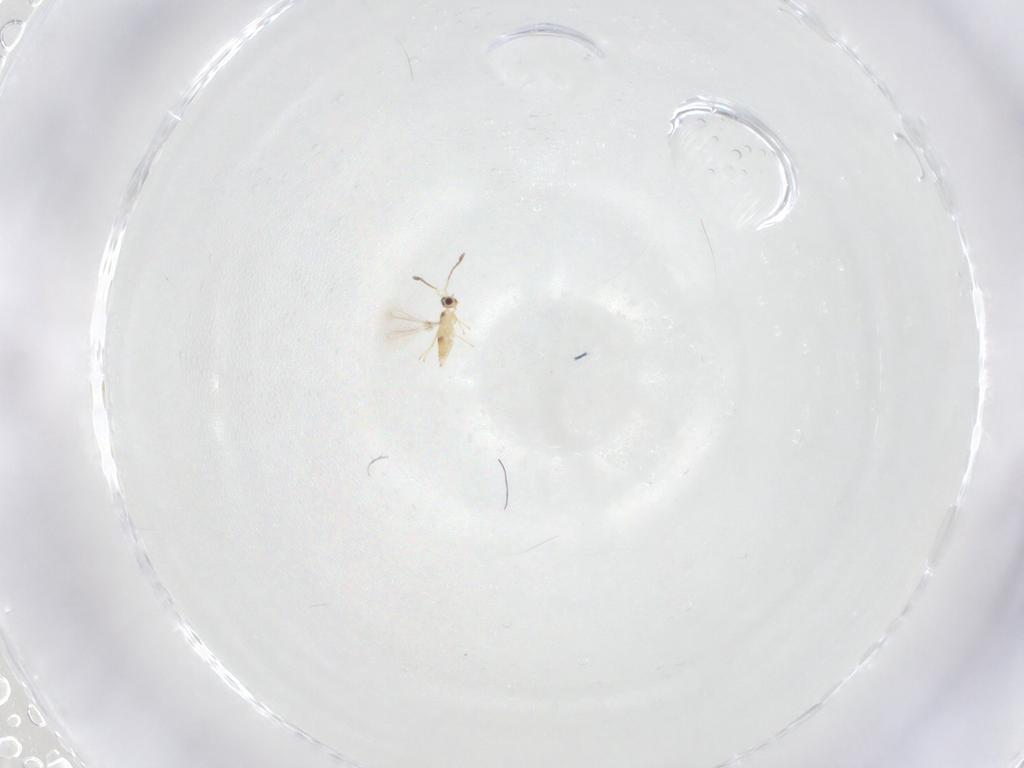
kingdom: Animalia
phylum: Arthropoda
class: Insecta
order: Hymenoptera
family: Mymaridae
